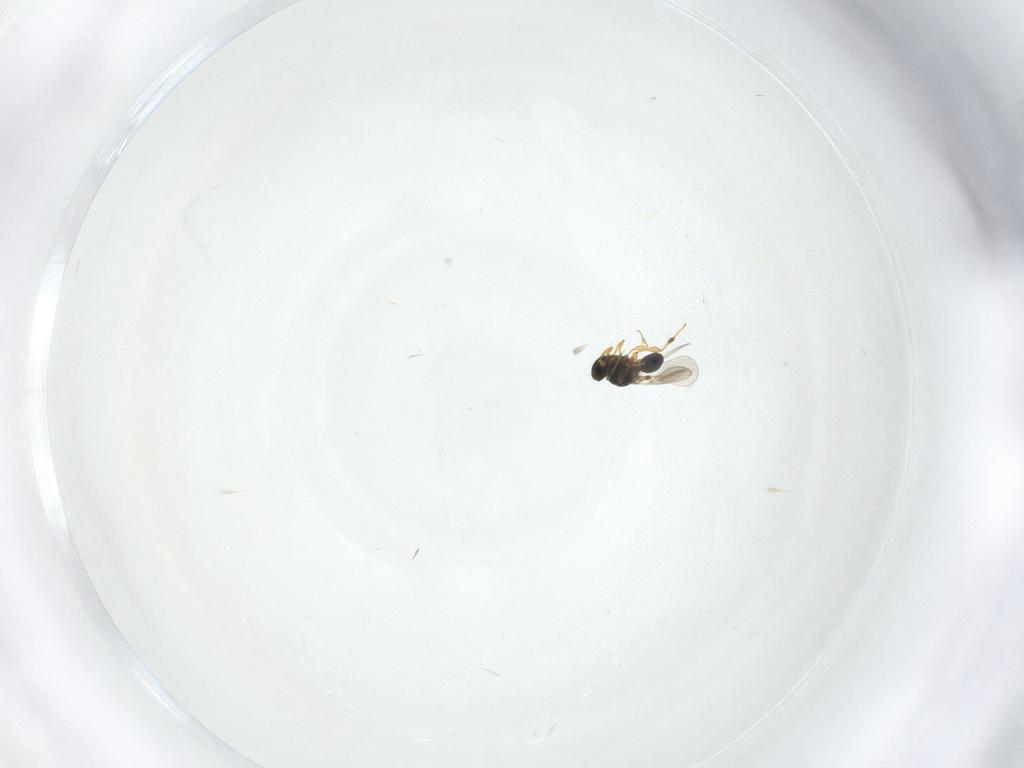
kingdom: Animalia
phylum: Arthropoda
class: Insecta
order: Hymenoptera
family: Platygastridae
